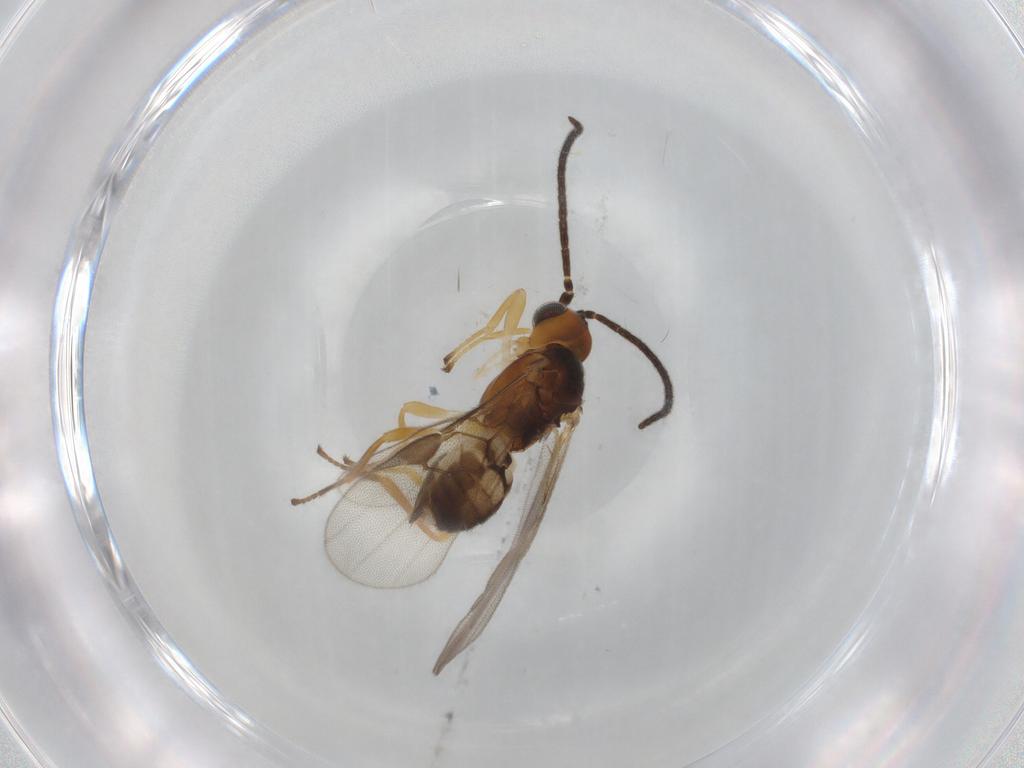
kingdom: Animalia
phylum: Arthropoda
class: Insecta
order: Hymenoptera
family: Braconidae
